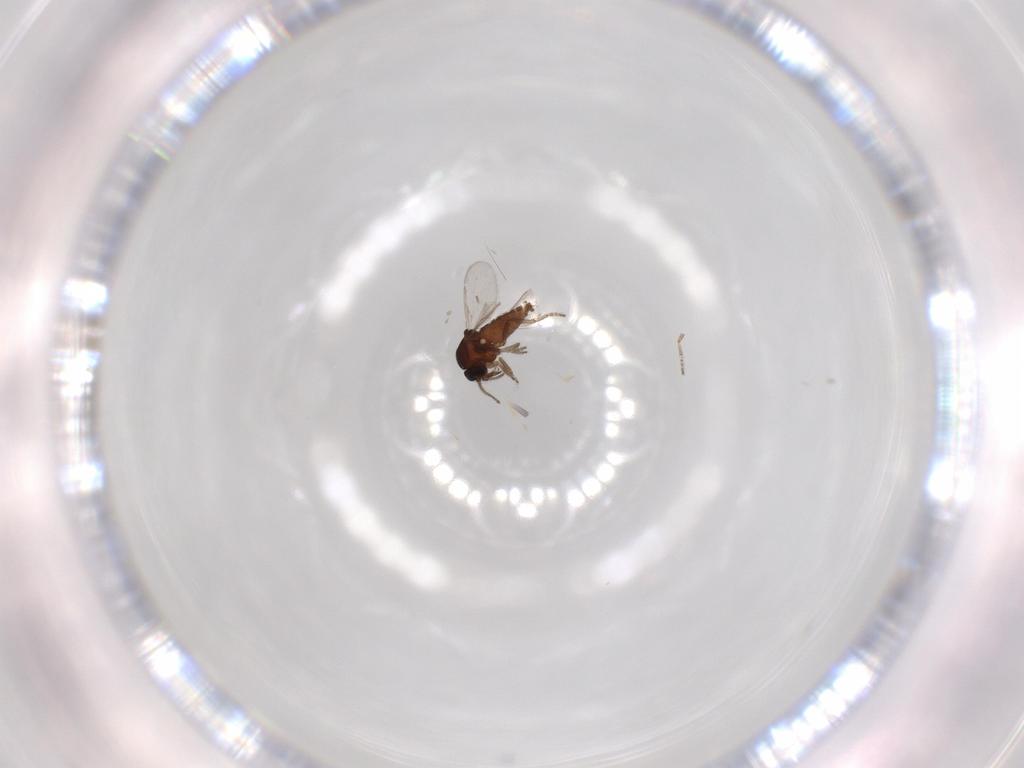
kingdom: Animalia
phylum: Arthropoda
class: Insecta
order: Diptera
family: Ceratopogonidae
